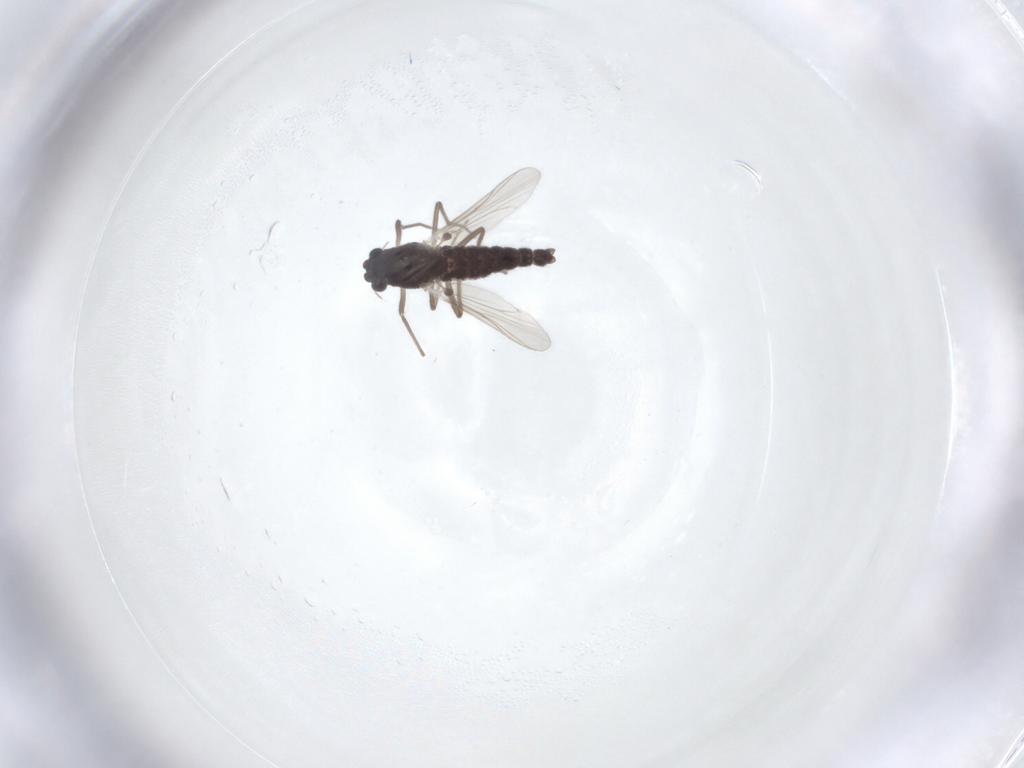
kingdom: Animalia
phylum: Arthropoda
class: Insecta
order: Diptera
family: Chironomidae
